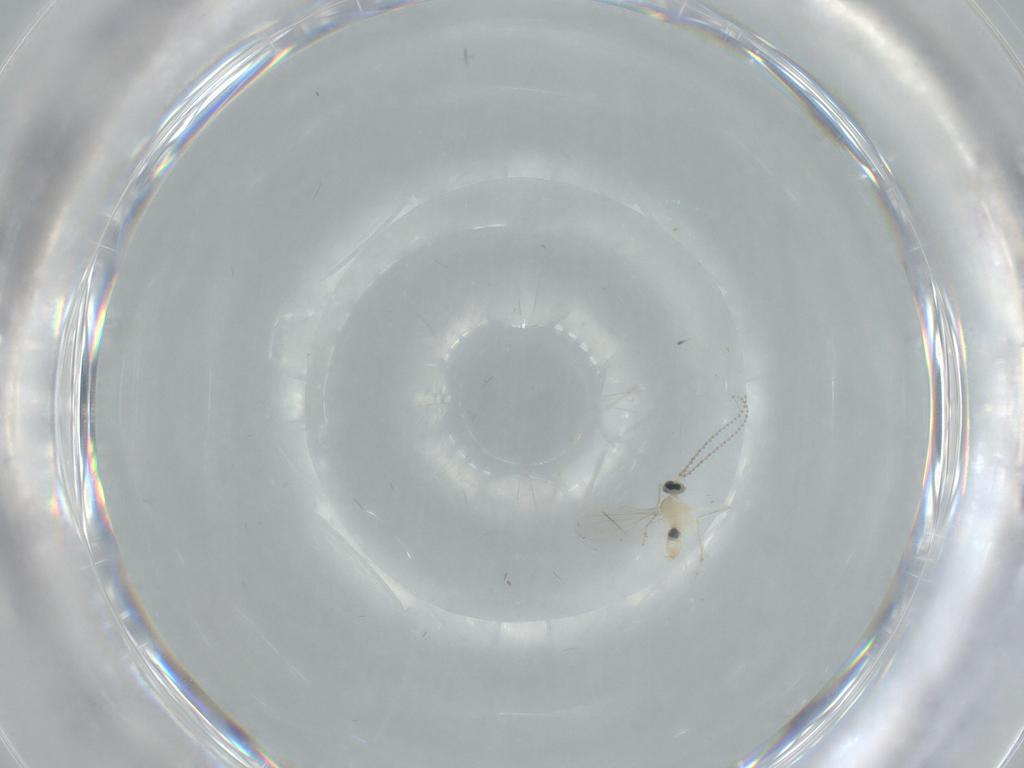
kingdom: Animalia
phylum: Arthropoda
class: Insecta
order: Diptera
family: Cecidomyiidae
